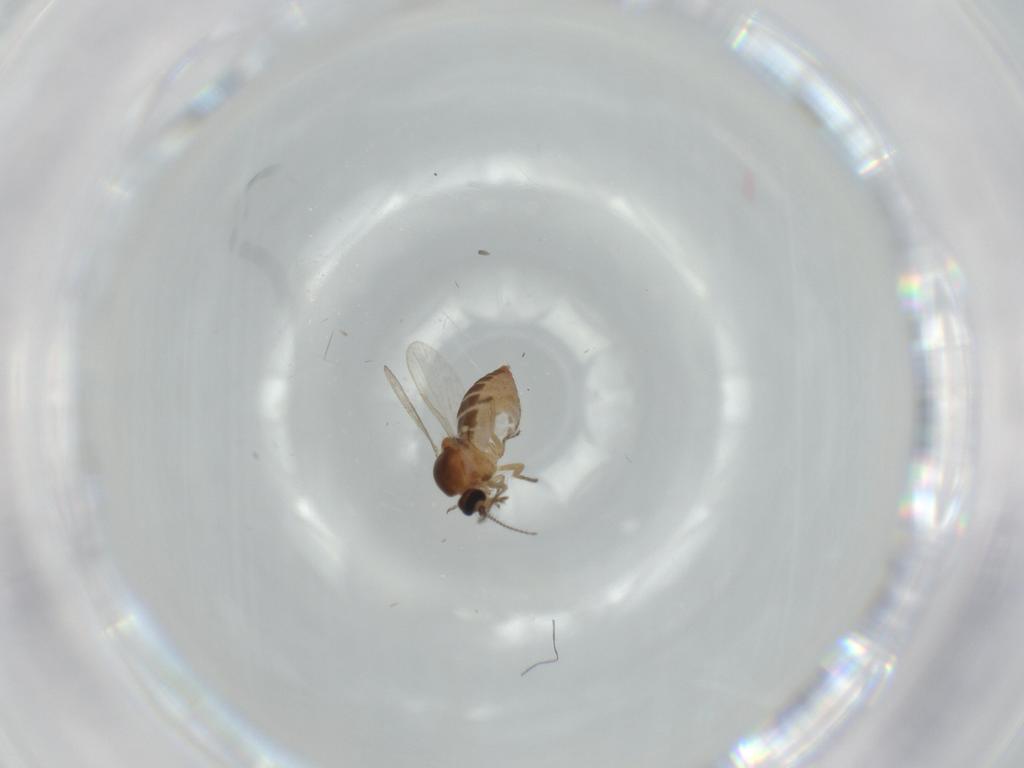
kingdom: Animalia
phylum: Arthropoda
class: Insecta
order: Diptera
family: Ceratopogonidae
